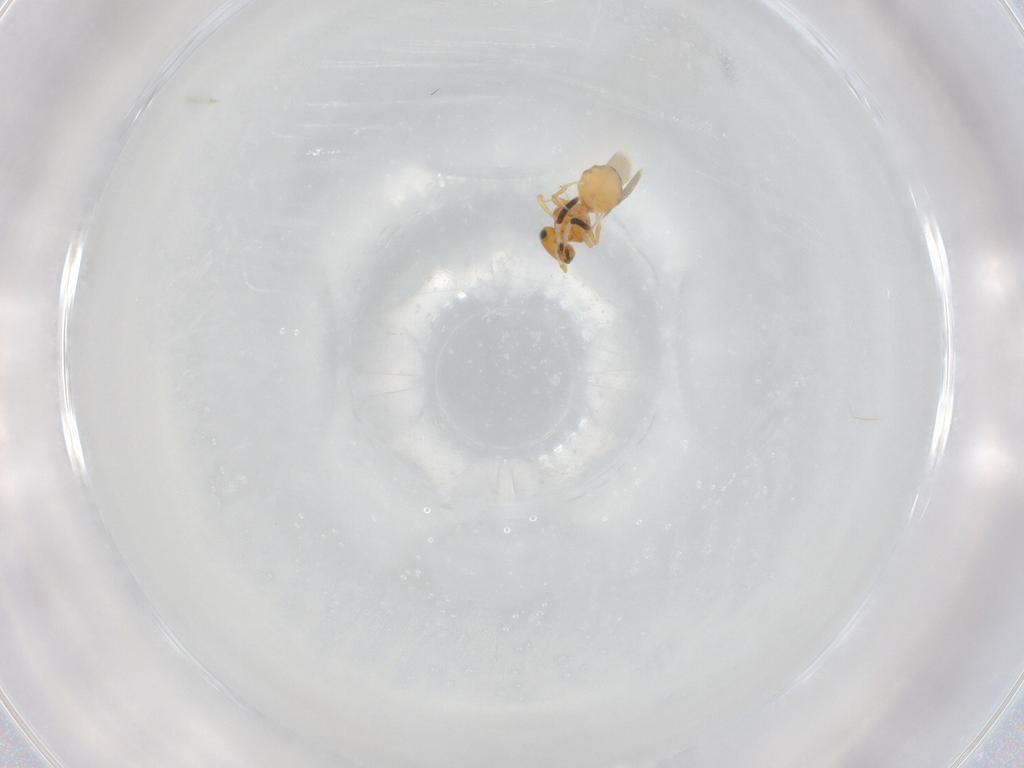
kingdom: Animalia
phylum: Arthropoda
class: Insecta
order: Hymenoptera
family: Scelionidae
